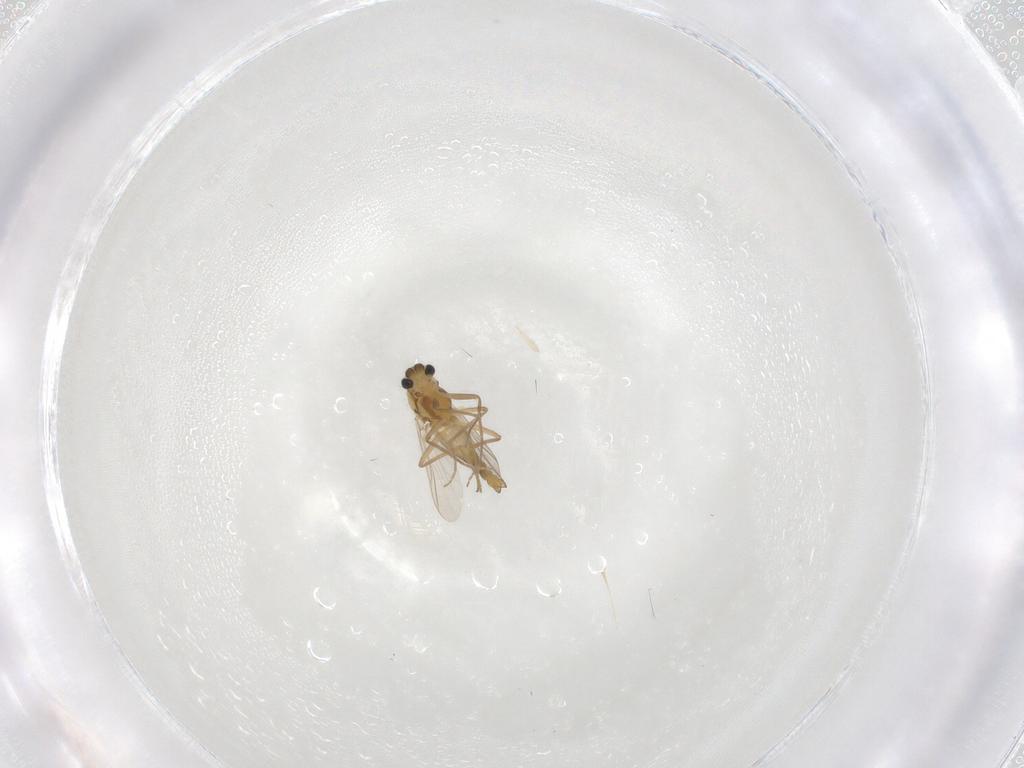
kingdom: Animalia
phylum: Arthropoda
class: Insecta
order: Diptera
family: Chironomidae
